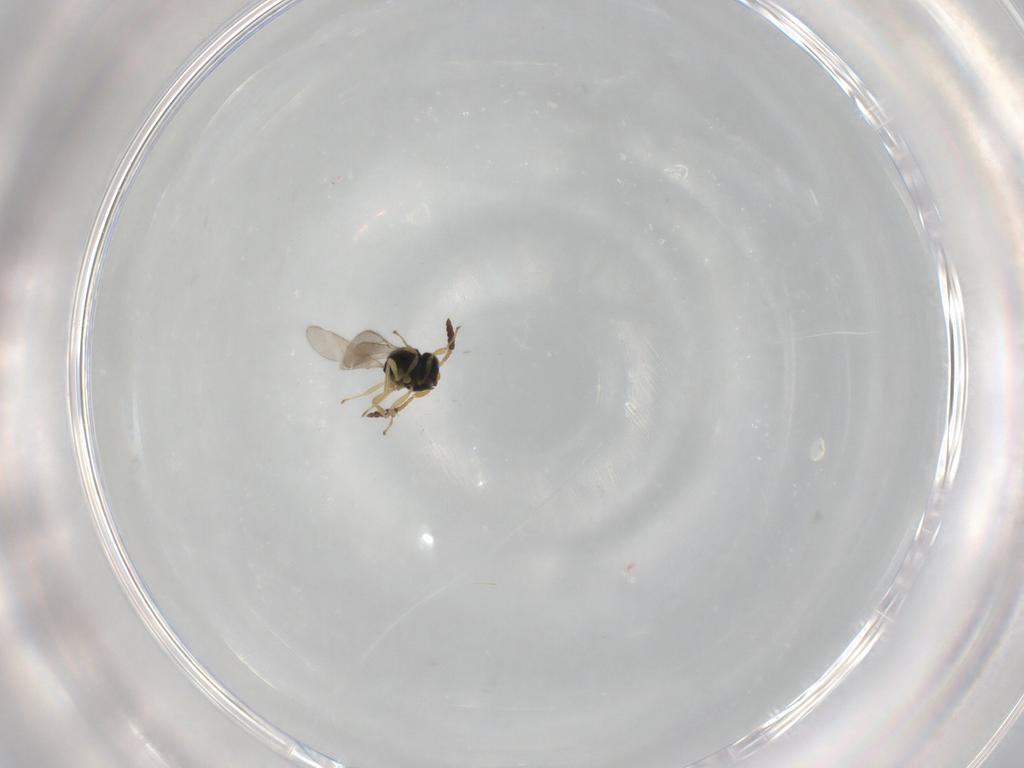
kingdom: Animalia
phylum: Arthropoda
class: Insecta
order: Hymenoptera
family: Scelionidae
